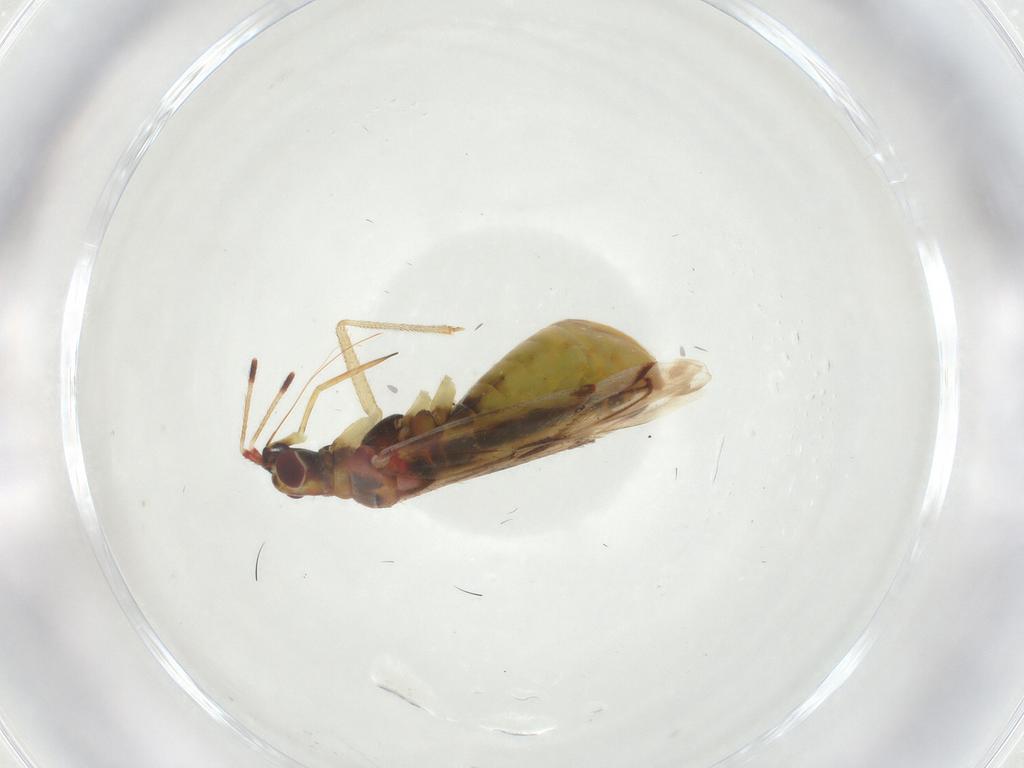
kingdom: Animalia
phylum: Arthropoda
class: Insecta
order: Hemiptera
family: Miridae
